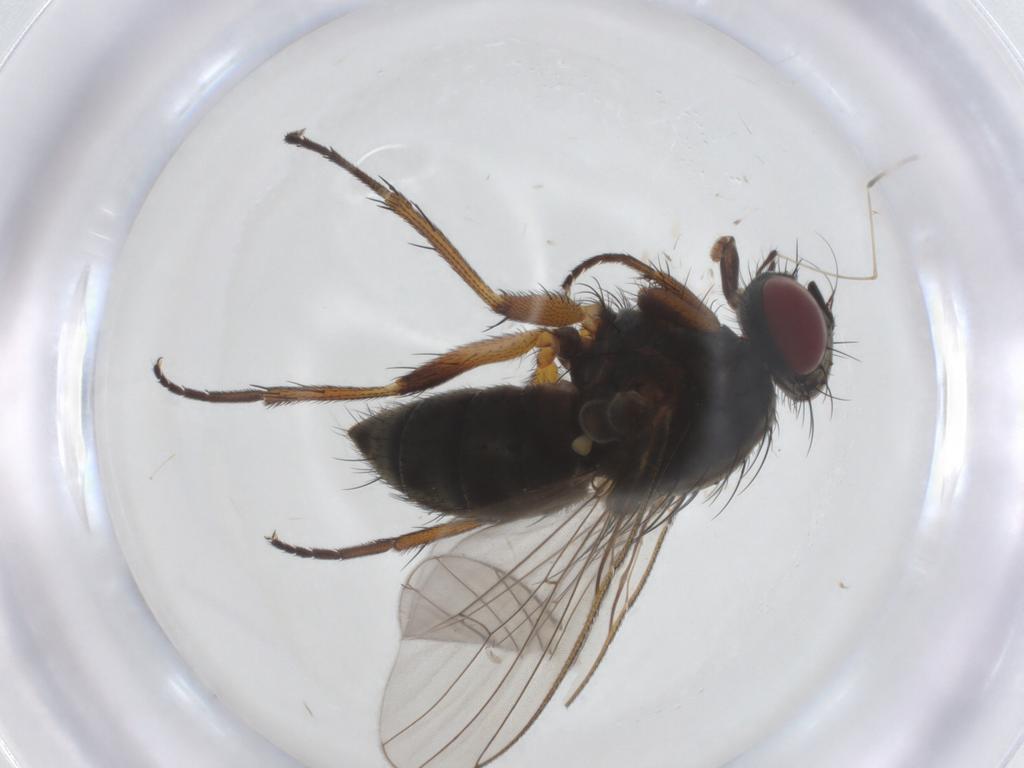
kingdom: Animalia
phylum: Arthropoda
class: Insecta
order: Diptera
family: Muscidae
